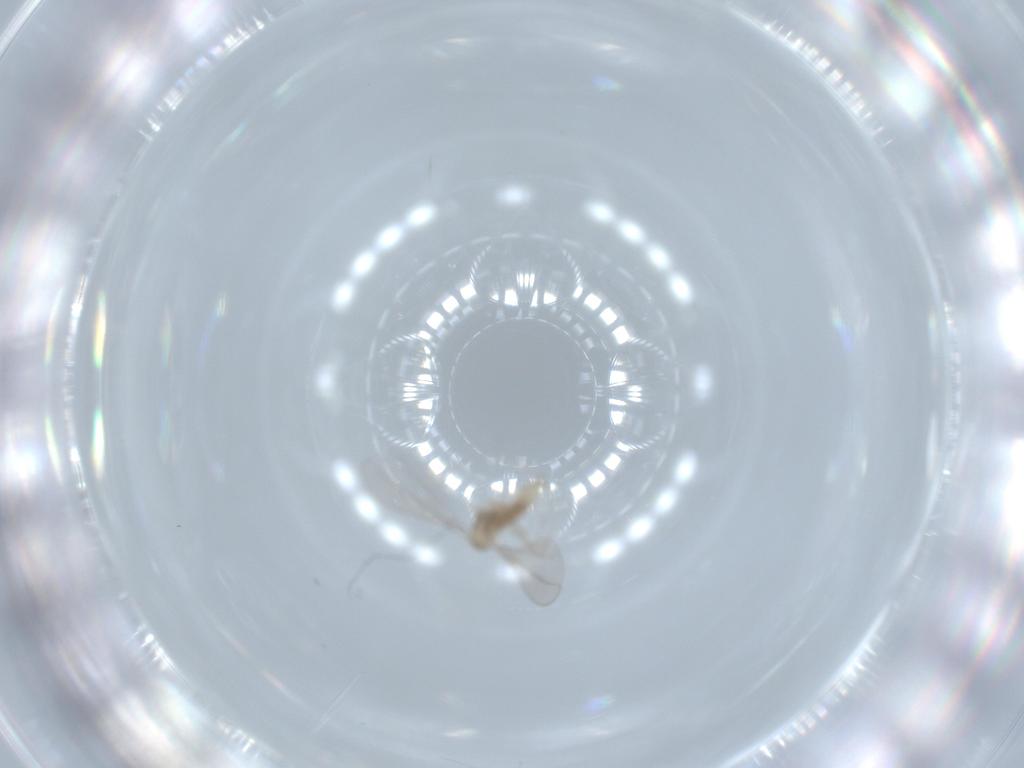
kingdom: Animalia
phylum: Arthropoda
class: Insecta
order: Diptera
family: Cecidomyiidae
